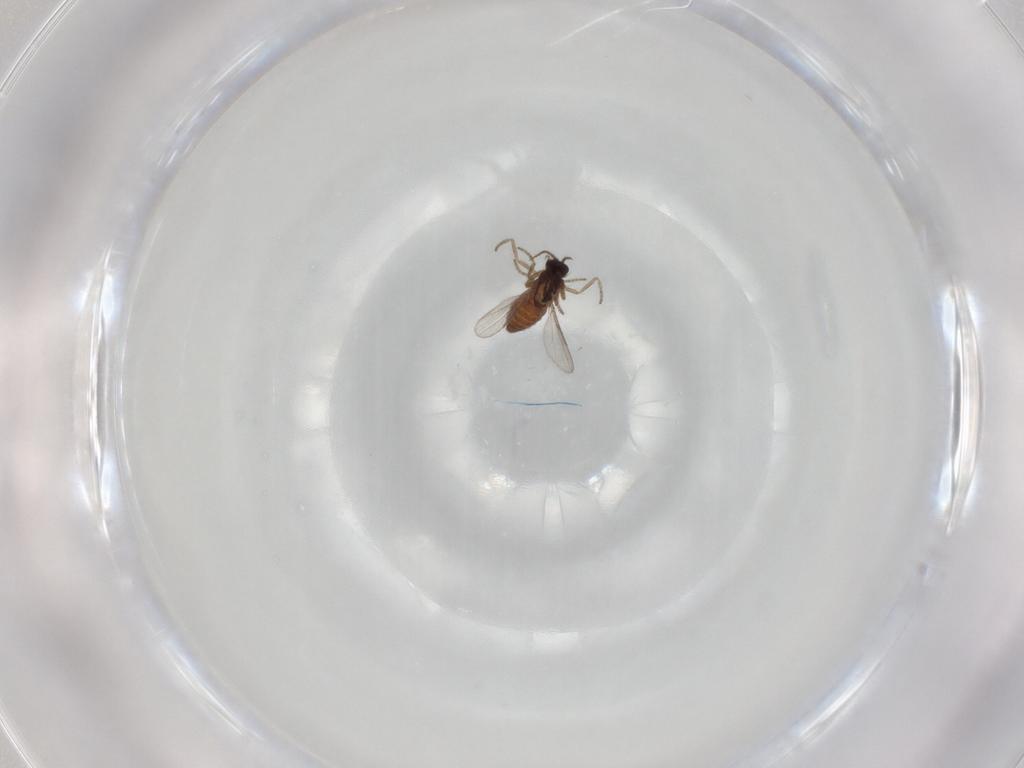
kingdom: Animalia
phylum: Arthropoda
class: Insecta
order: Diptera
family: Ceratopogonidae
